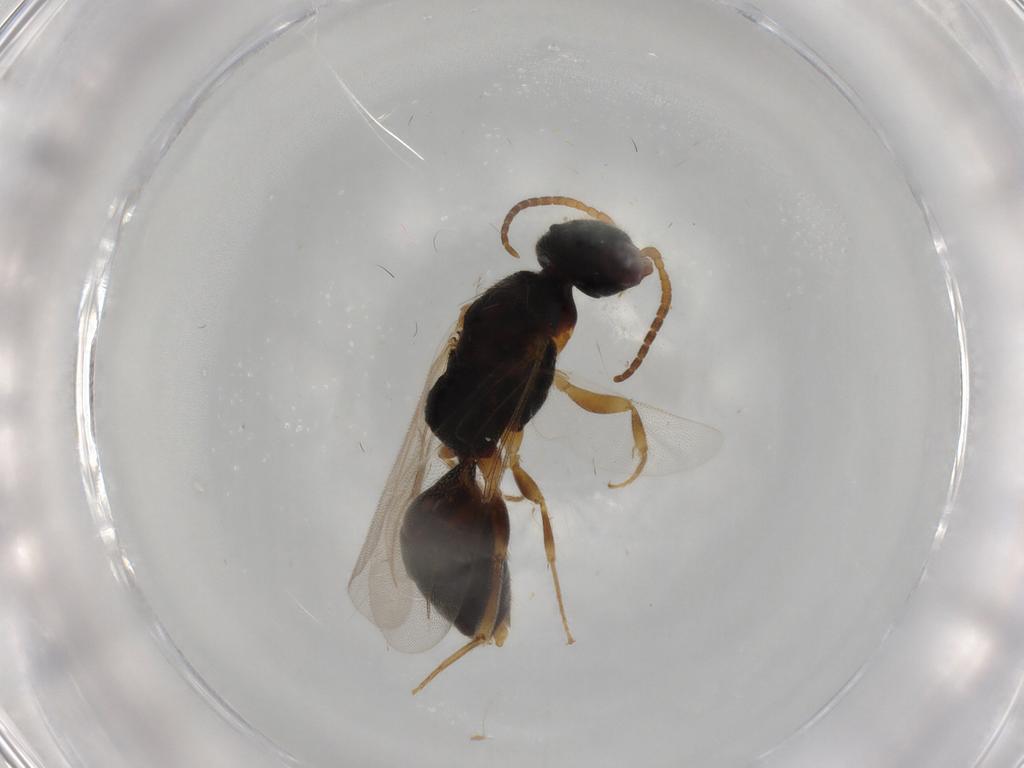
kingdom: Animalia
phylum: Arthropoda
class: Insecta
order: Hymenoptera
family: Bethylidae
